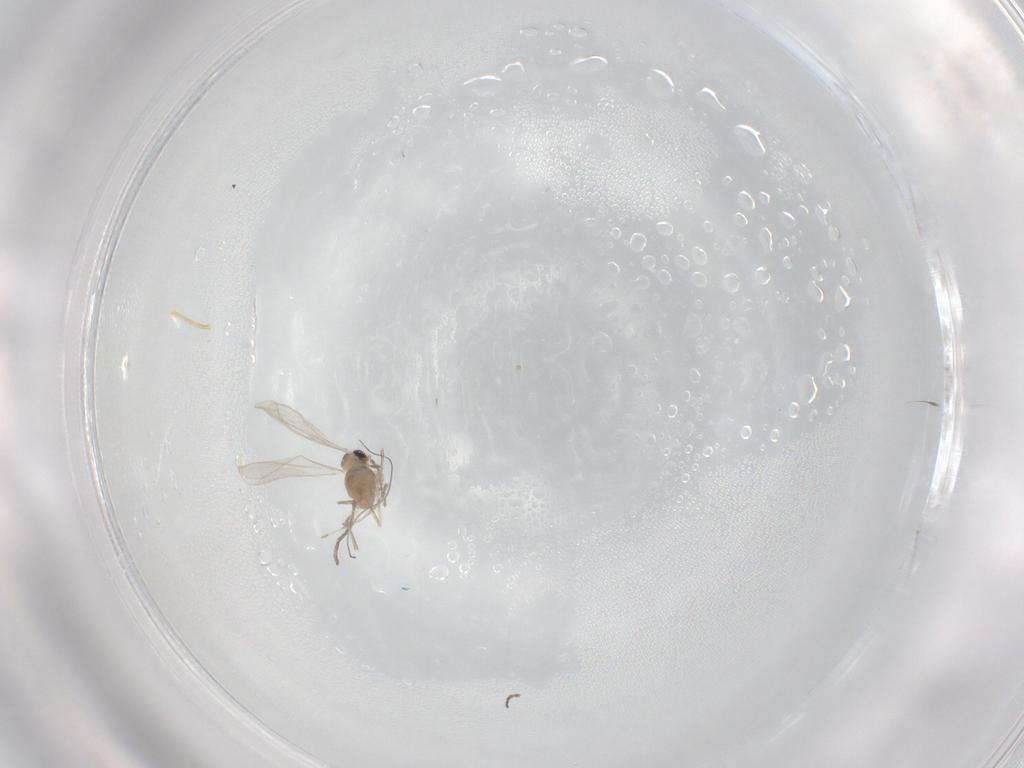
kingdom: Animalia
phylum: Arthropoda
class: Insecta
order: Diptera
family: Cecidomyiidae
